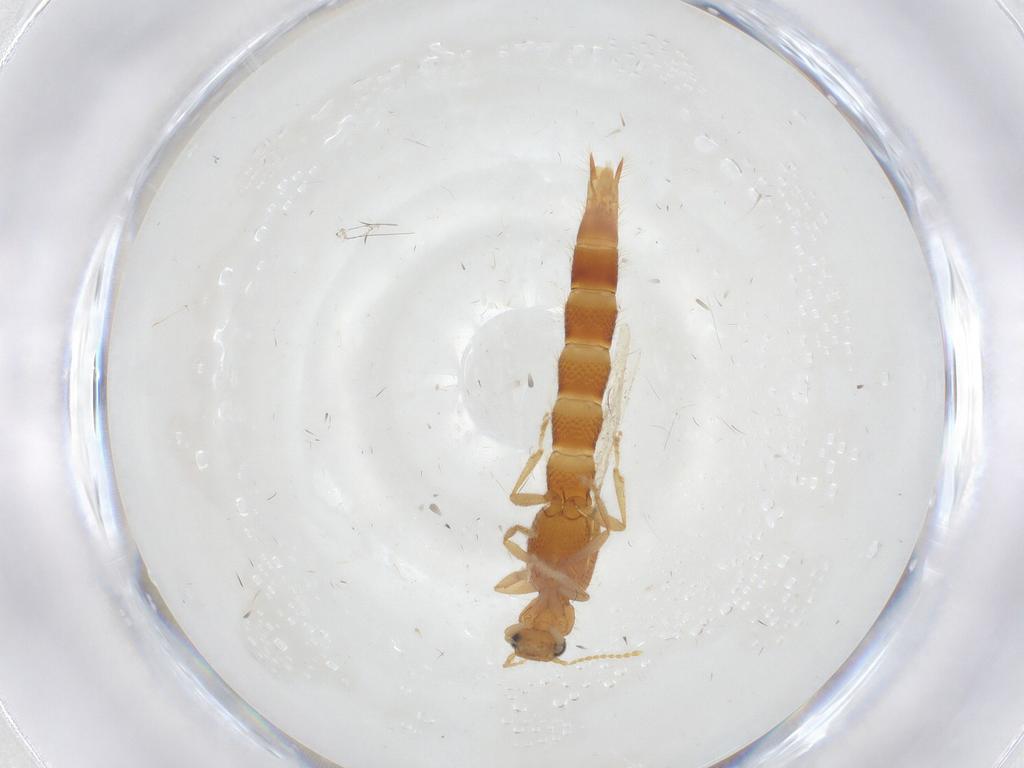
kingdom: Animalia
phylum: Arthropoda
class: Insecta
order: Coleoptera
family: Staphylinidae
